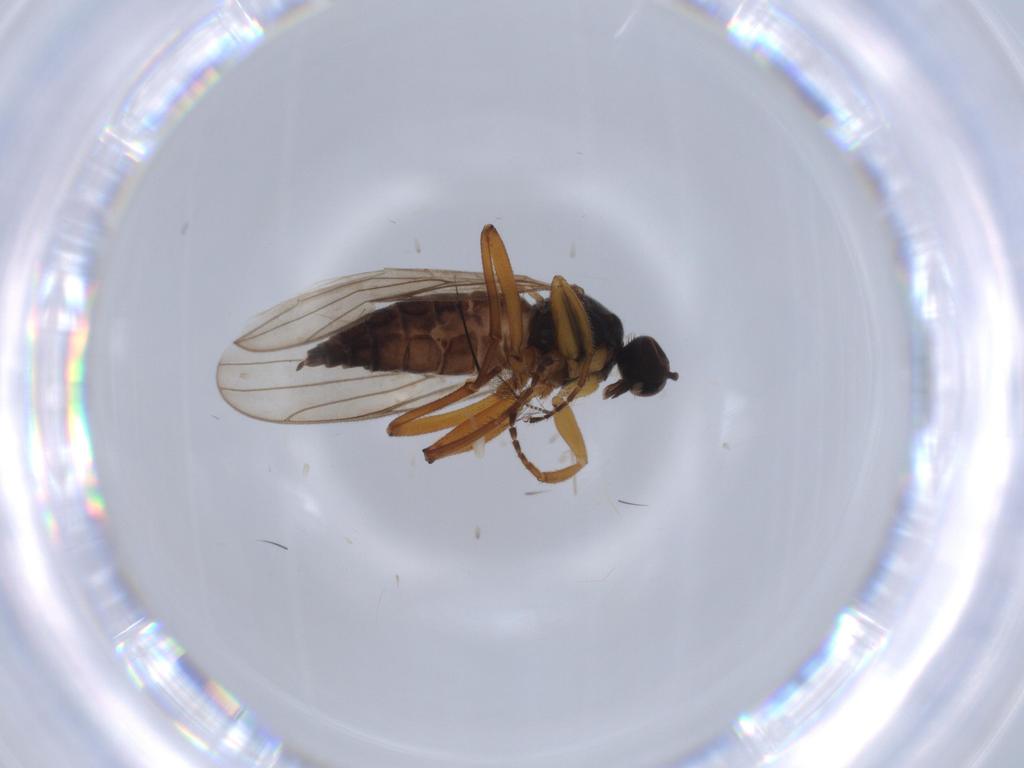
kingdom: Animalia
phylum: Arthropoda
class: Insecta
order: Diptera
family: Hybotidae
